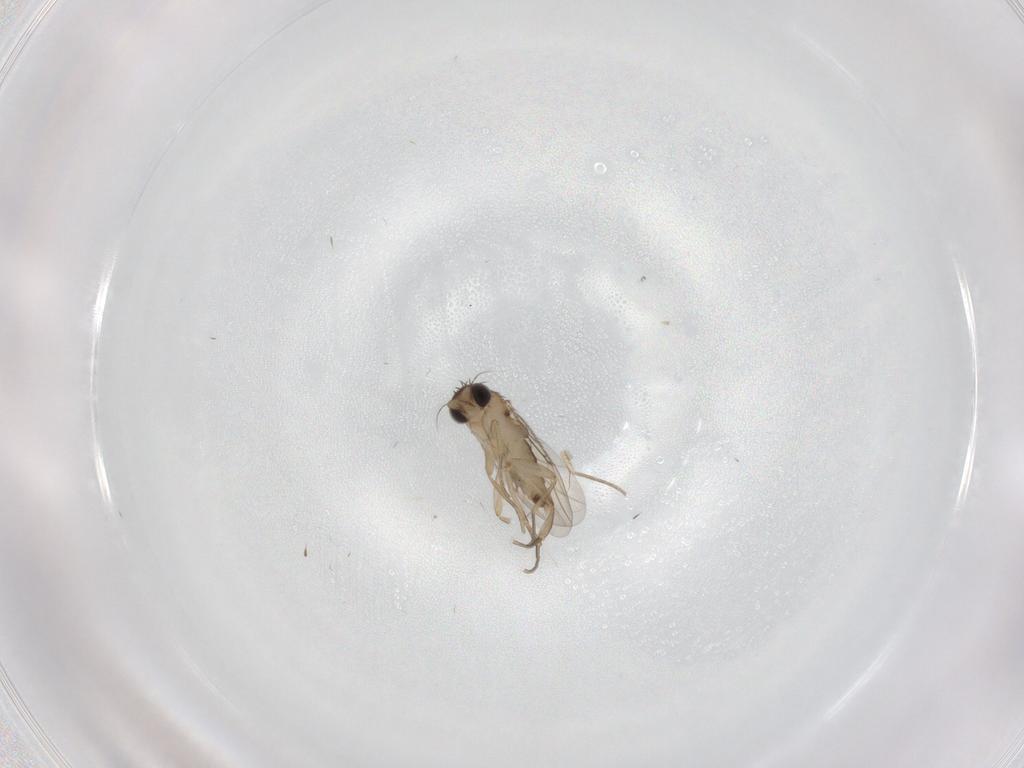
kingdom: Animalia
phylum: Arthropoda
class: Insecta
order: Diptera
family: Phoridae
